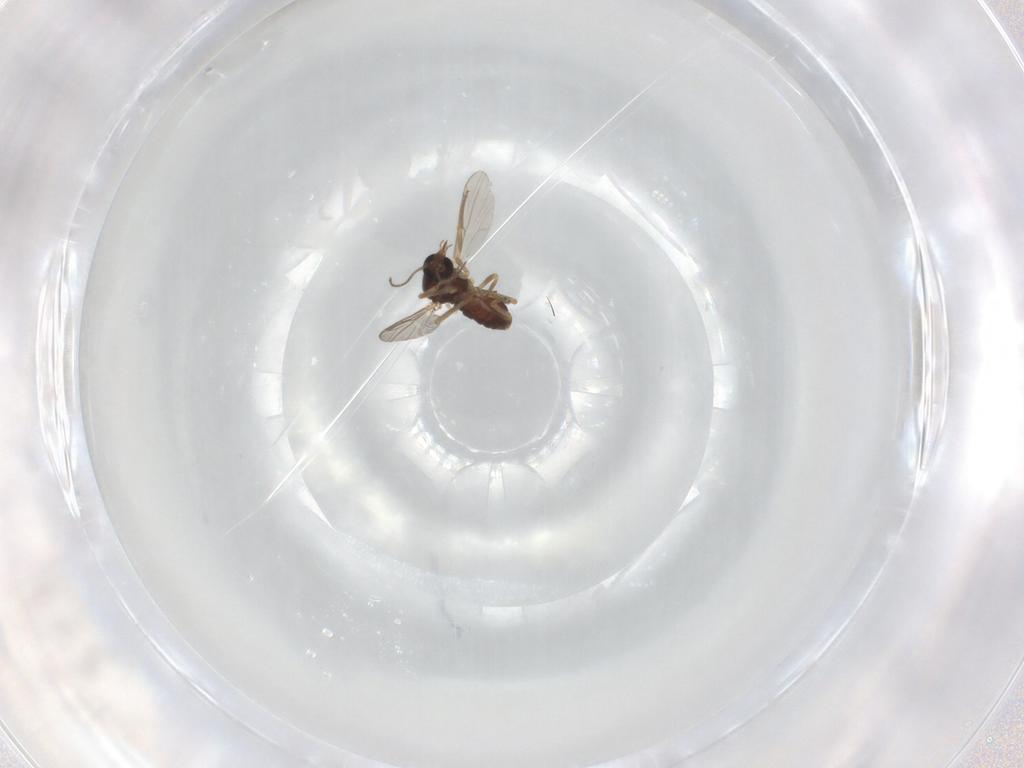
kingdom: Animalia
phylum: Arthropoda
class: Insecta
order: Diptera
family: Ceratopogonidae
